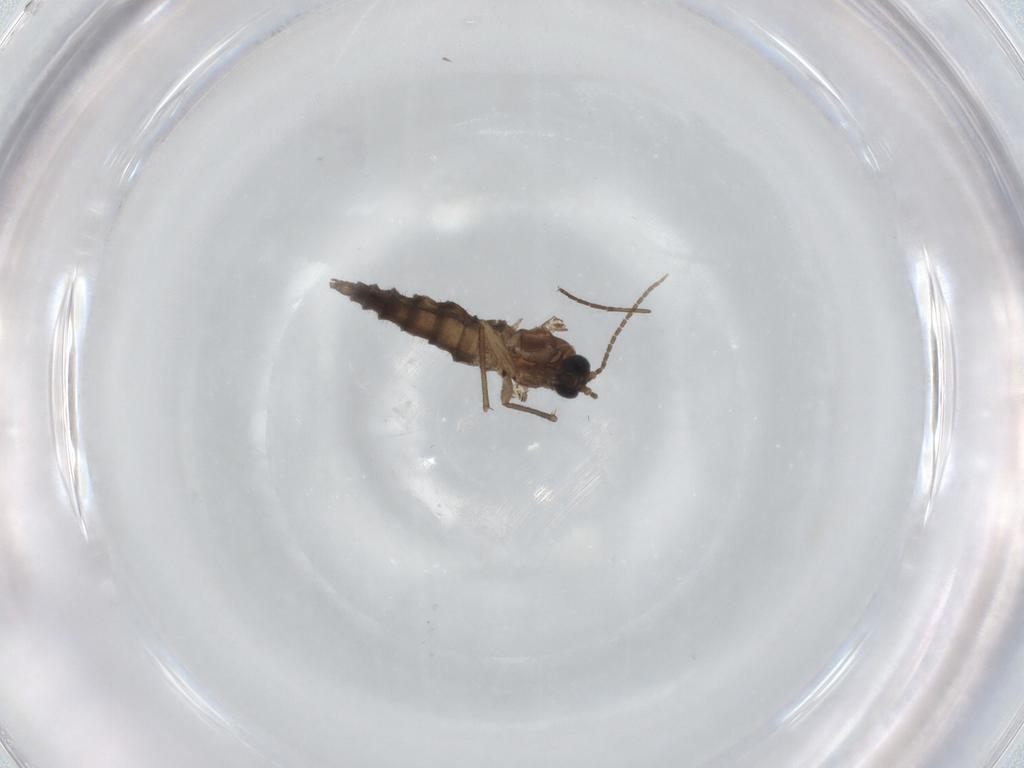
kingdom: Animalia
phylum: Arthropoda
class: Insecta
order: Diptera
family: Sciaridae
